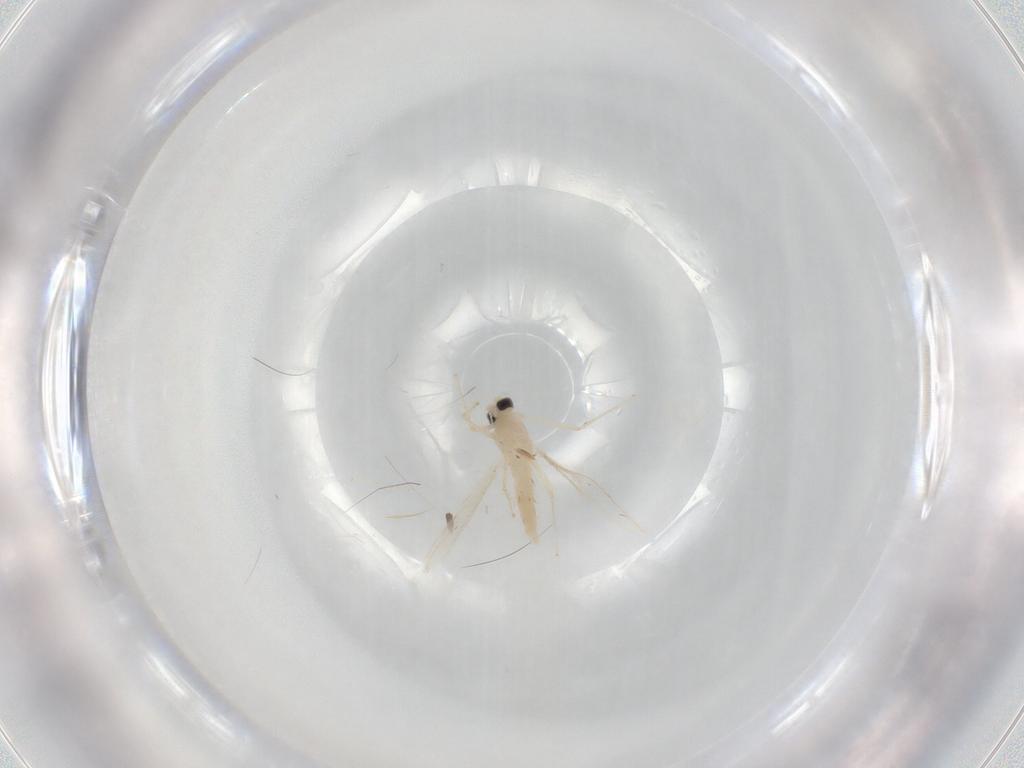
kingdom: Animalia
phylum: Arthropoda
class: Insecta
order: Diptera
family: Chironomidae
